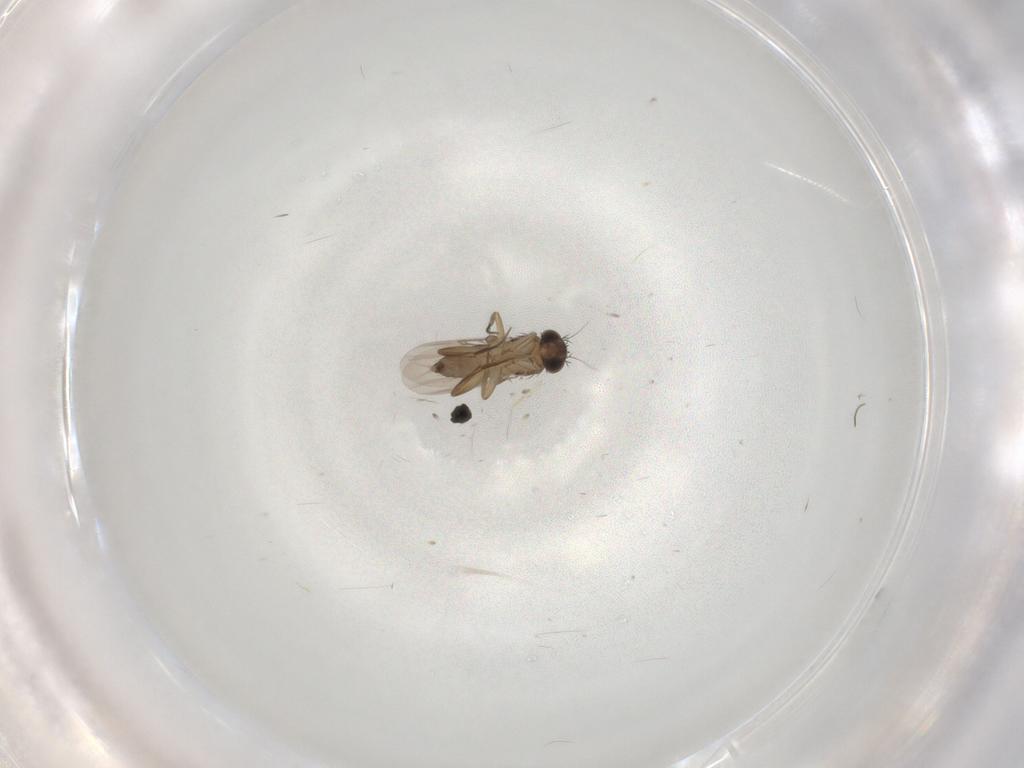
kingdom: Animalia
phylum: Arthropoda
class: Insecta
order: Diptera
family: Phoridae
